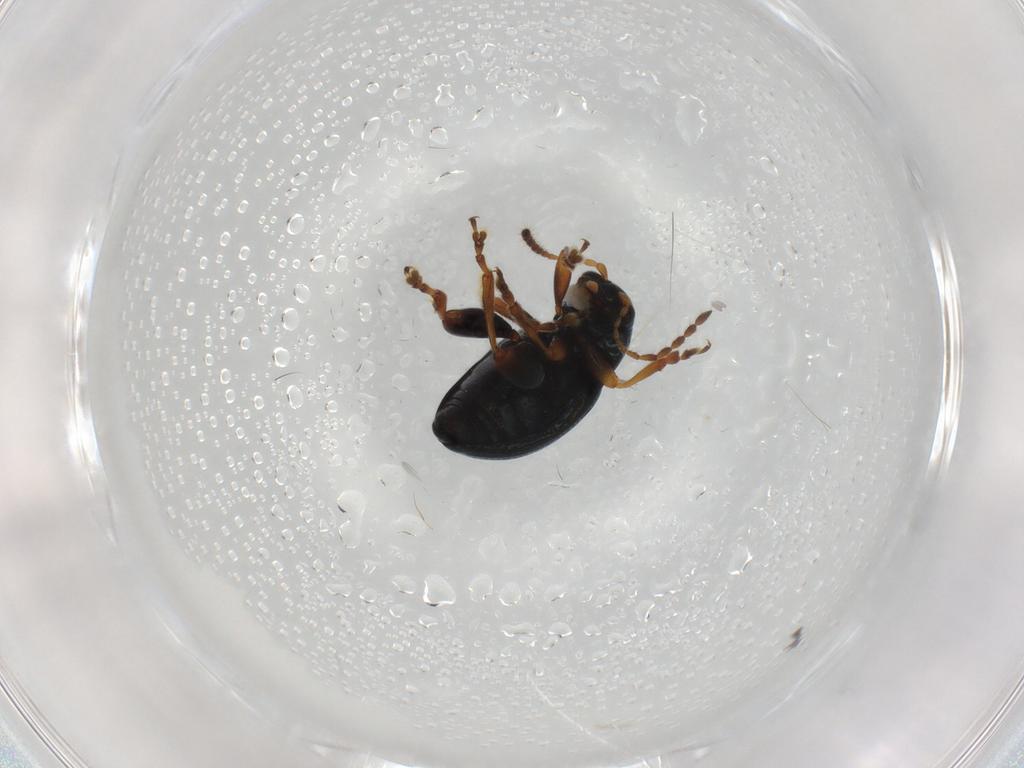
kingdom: Animalia
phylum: Arthropoda
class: Insecta
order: Coleoptera
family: Chrysomelidae
